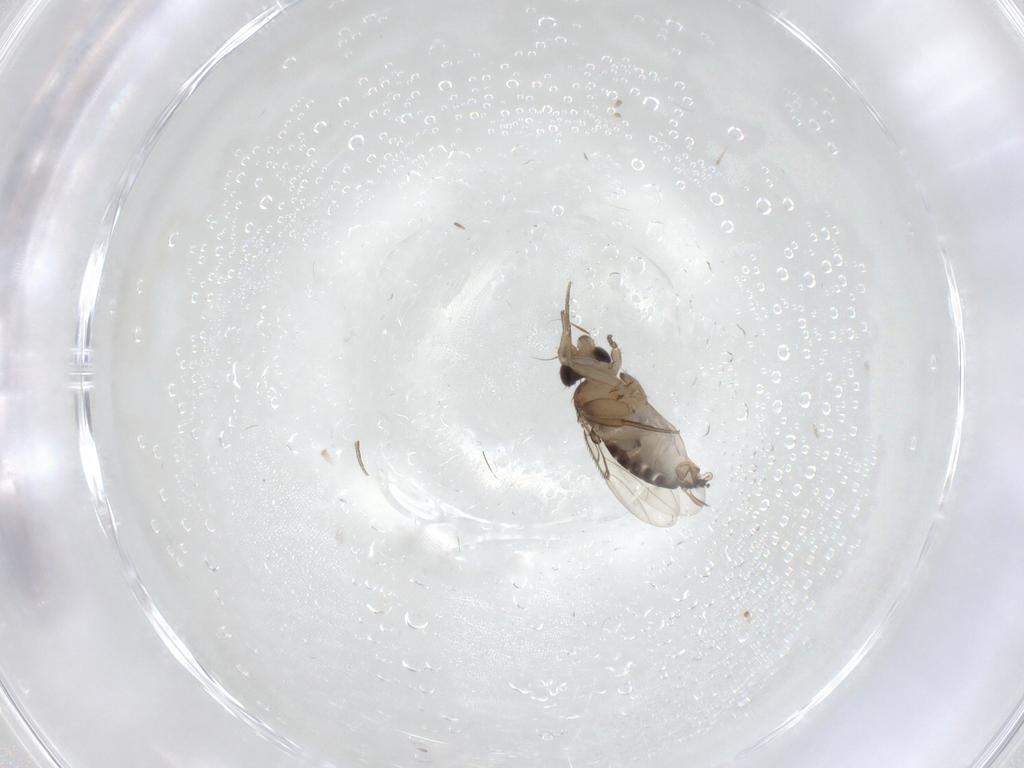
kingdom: Animalia
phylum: Arthropoda
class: Insecta
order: Diptera
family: Phoridae
